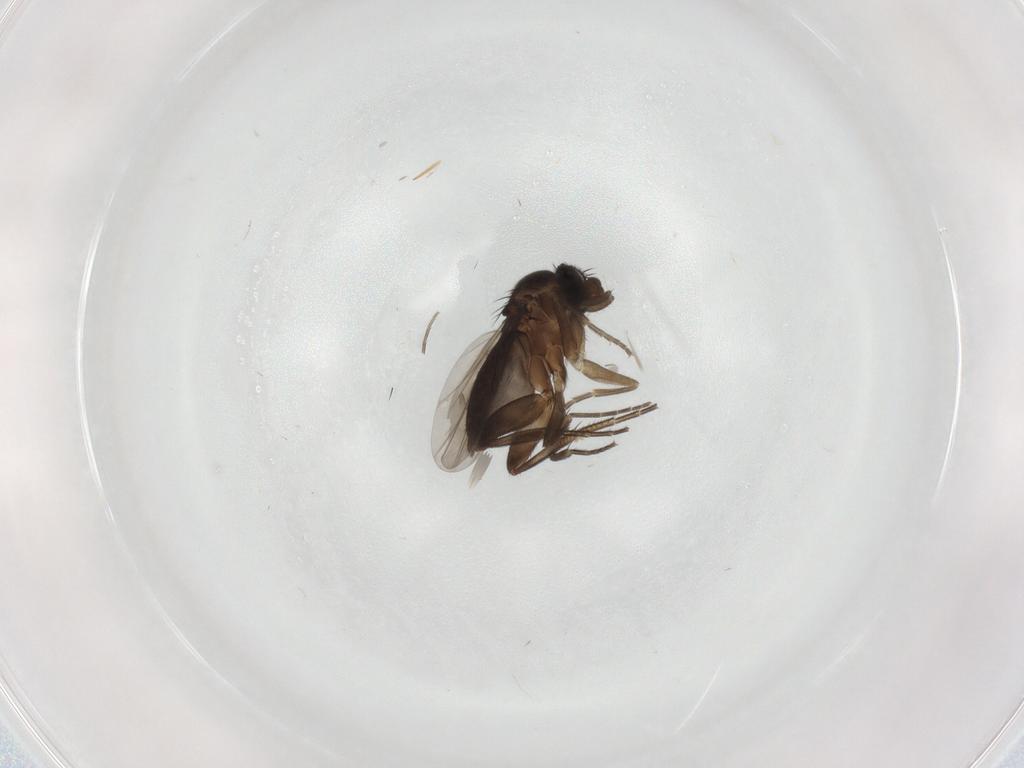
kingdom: Animalia
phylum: Arthropoda
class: Insecta
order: Diptera
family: Phoridae
